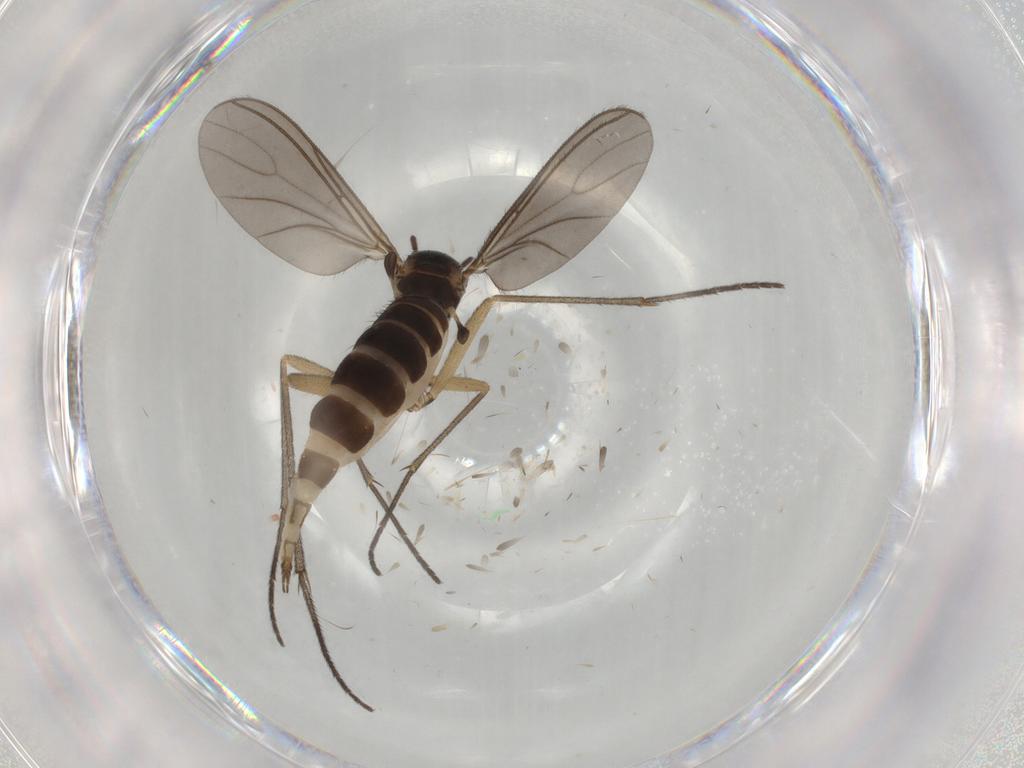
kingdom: Animalia
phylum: Arthropoda
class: Insecta
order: Diptera
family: Sciaridae
